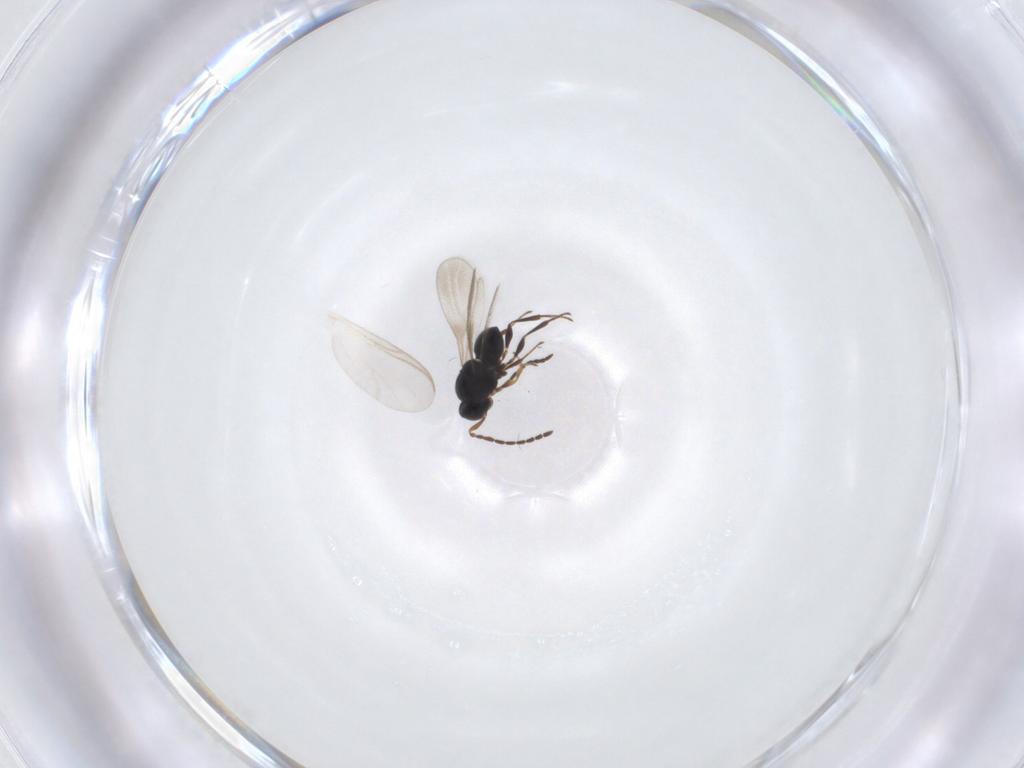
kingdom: Animalia
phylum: Arthropoda
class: Insecta
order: Hymenoptera
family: Platygastridae
